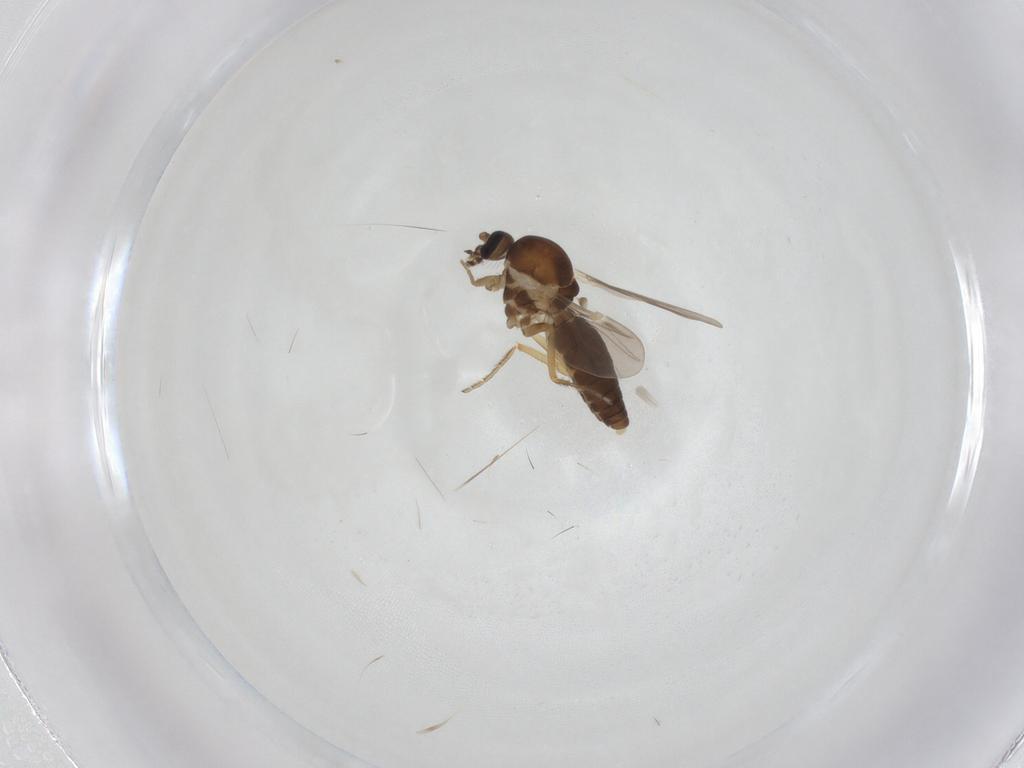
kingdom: Animalia
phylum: Arthropoda
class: Insecta
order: Diptera
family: Ceratopogonidae
